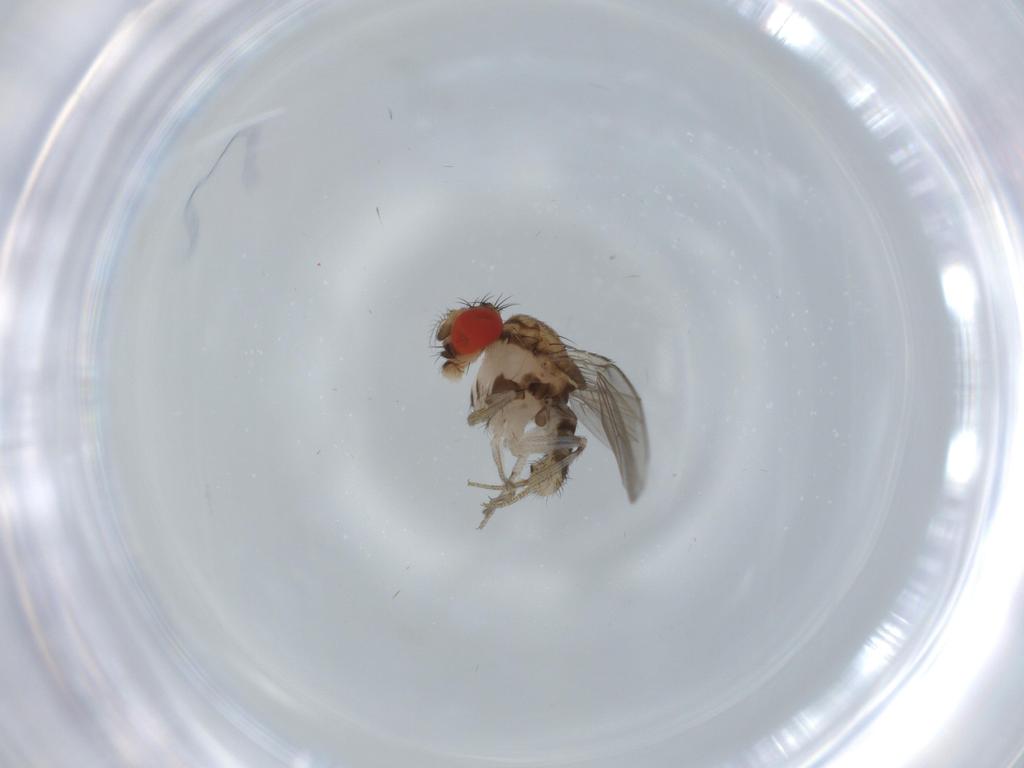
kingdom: Animalia
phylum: Arthropoda
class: Insecta
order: Diptera
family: Drosophilidae
